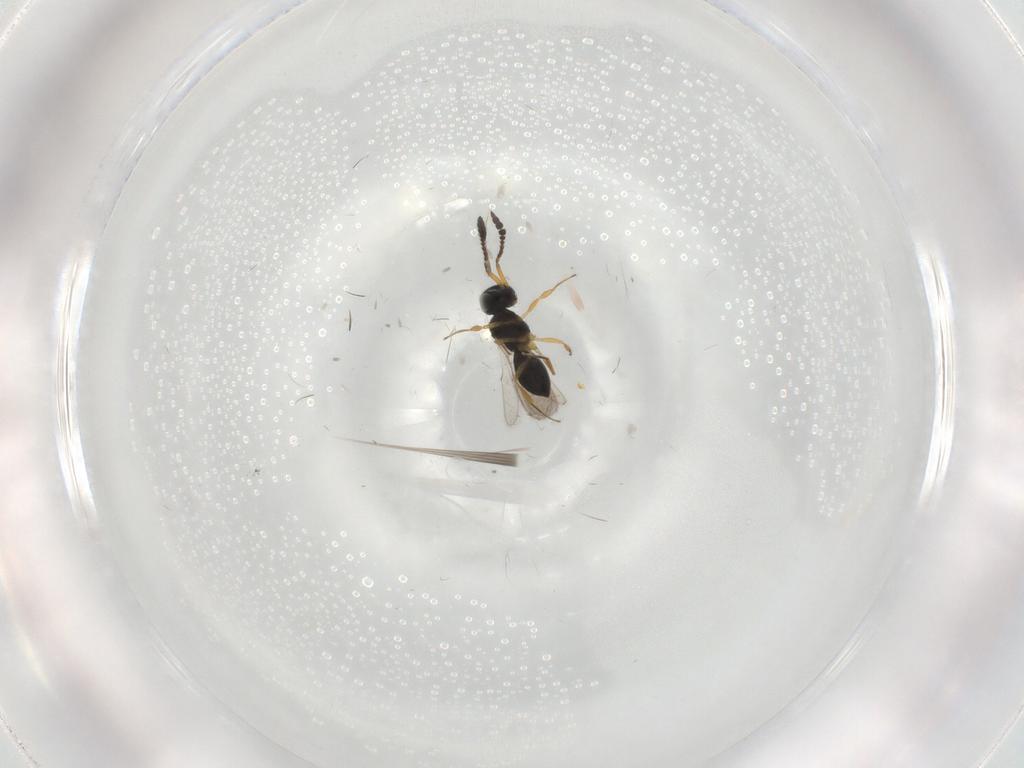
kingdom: Animalia
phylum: Arthropoda
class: Insecta
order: Hymenoptera
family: Scelionidae
